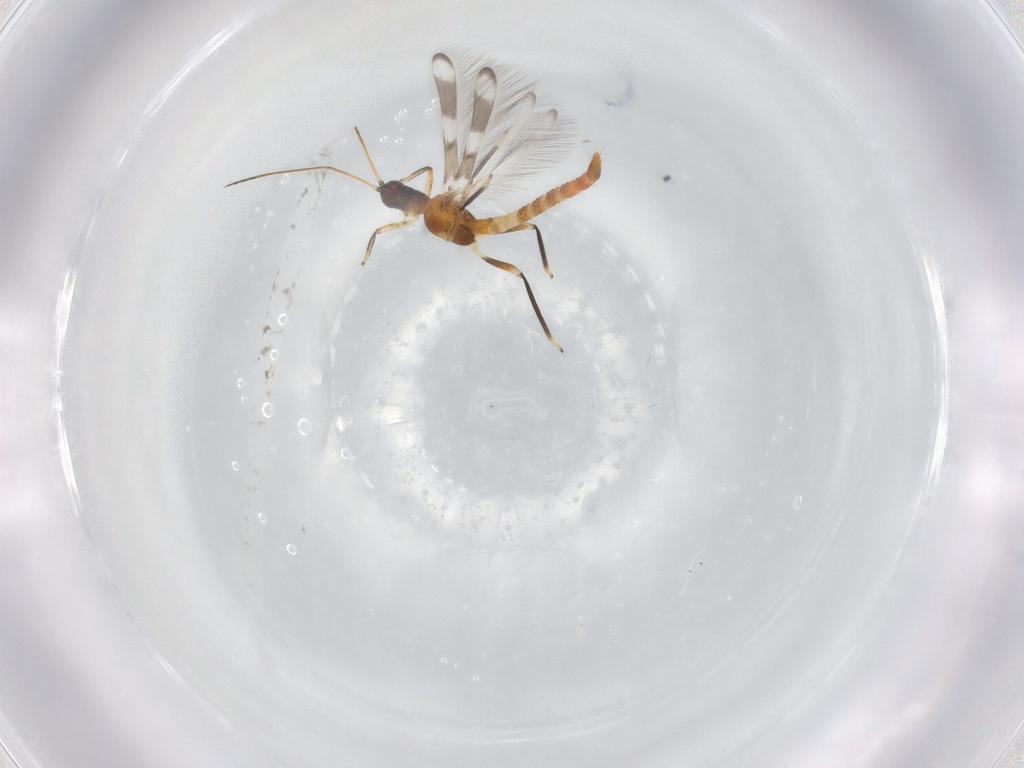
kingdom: Animalia
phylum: Arthropoda
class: Insecta
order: Thysanoptera
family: Aeolothripidae
